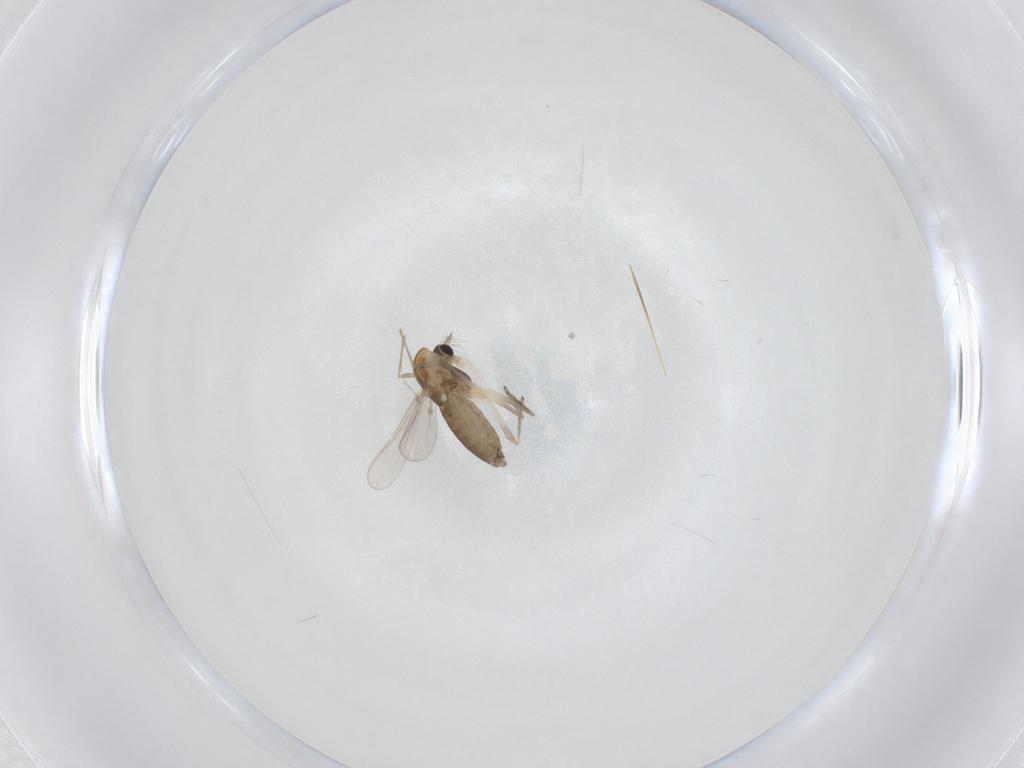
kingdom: Animalia
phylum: Arthropoda
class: Insecta
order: Diptera
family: Chironomidae
